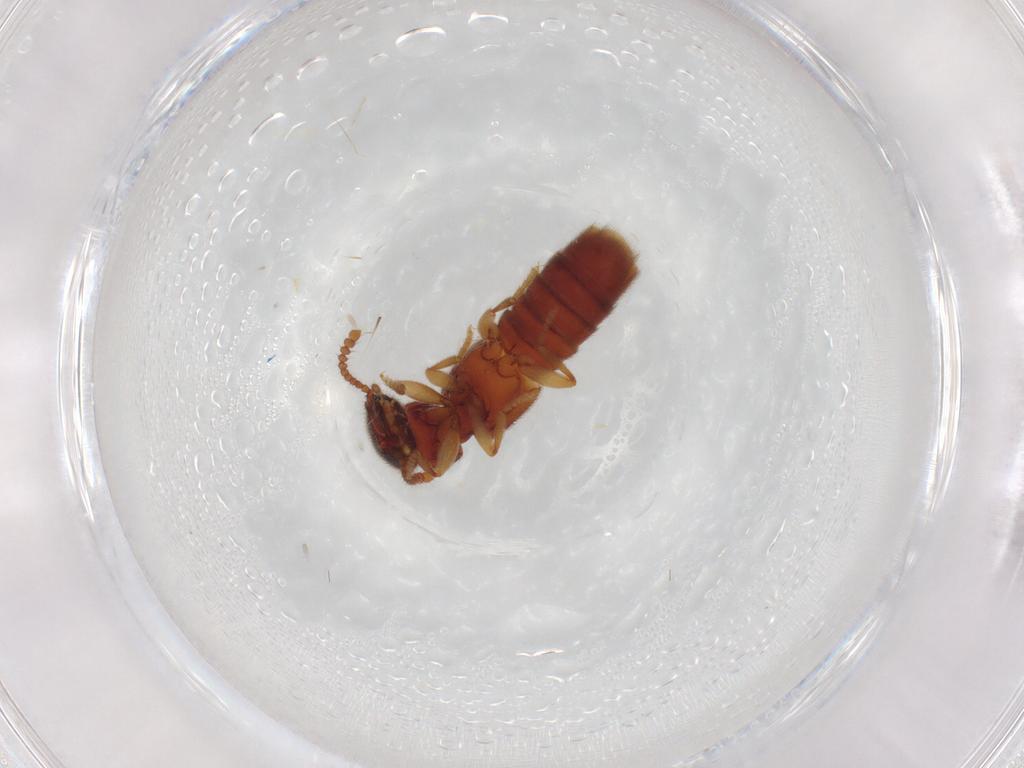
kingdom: Animalia
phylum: Arthropoda
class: Insecta
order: Coleoptera
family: Staphylinidae
